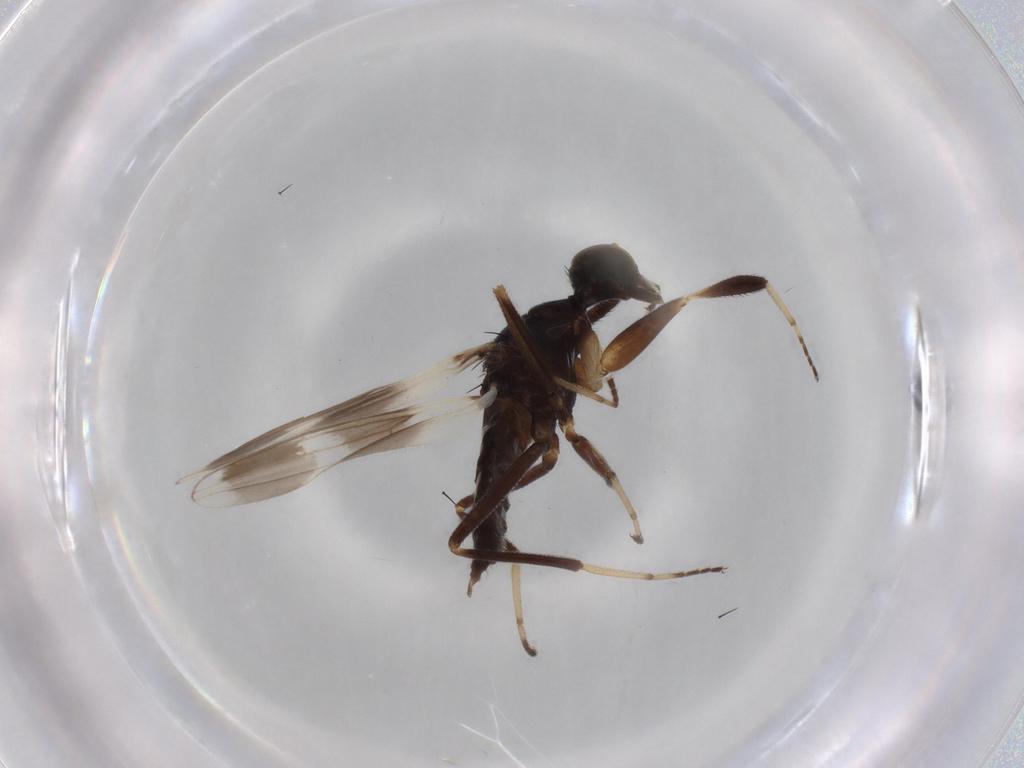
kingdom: Animalia
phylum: Arthropoda
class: Insecta
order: Diptera
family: Hybotidae
